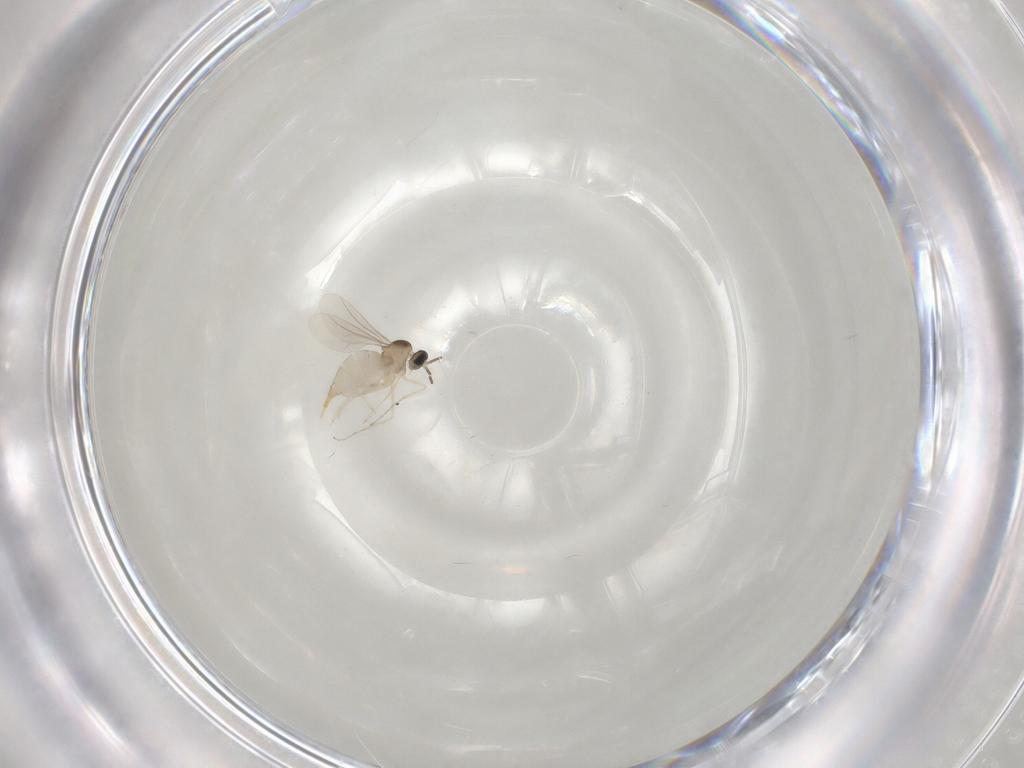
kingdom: Animalia
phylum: Arthropoda
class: Insecta
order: Diptera
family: Cecidomyiidae
